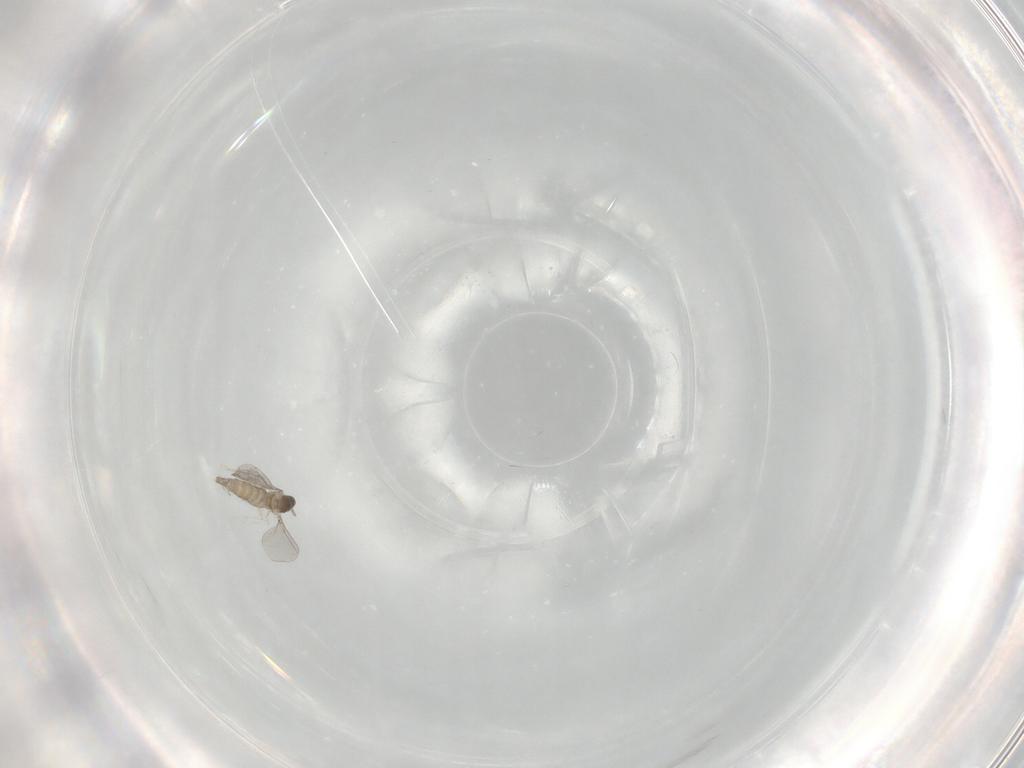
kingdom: Animalia
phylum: Arthropoda
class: Insecta
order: Diptera
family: Cecidomyiidae
